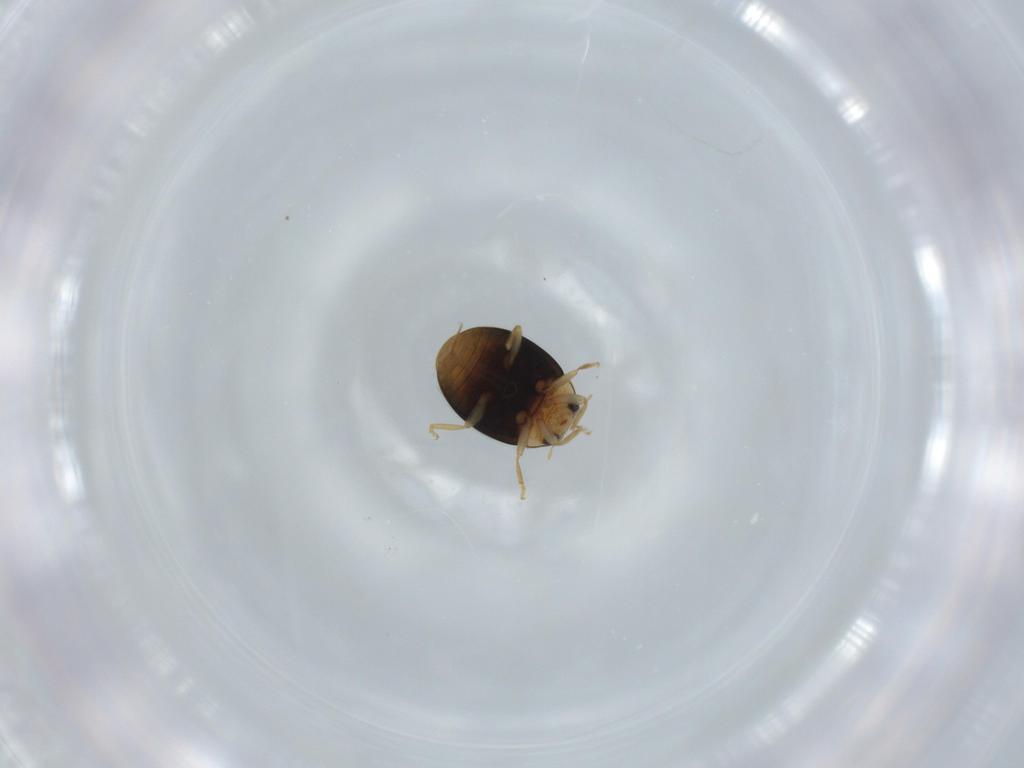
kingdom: Animalia
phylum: Arthropoda
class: Insecta
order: Coleoptera
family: Coccinellidae
